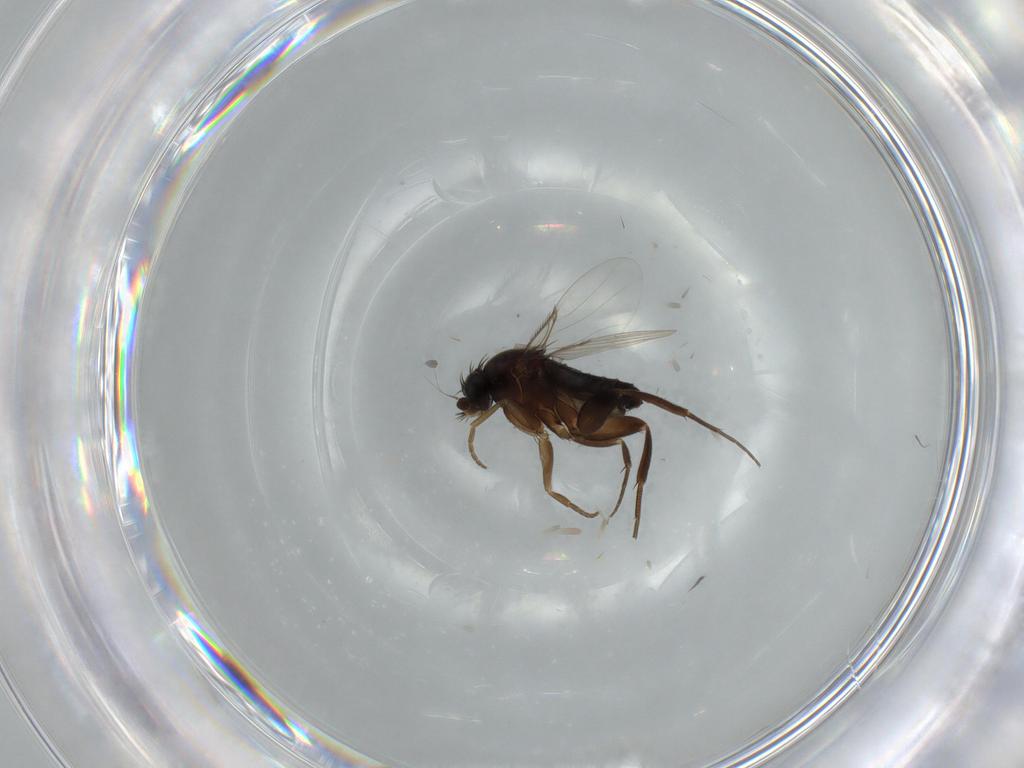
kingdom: Animalia
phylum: Arthropoda
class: Insecta
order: Diptera
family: Phoridae
